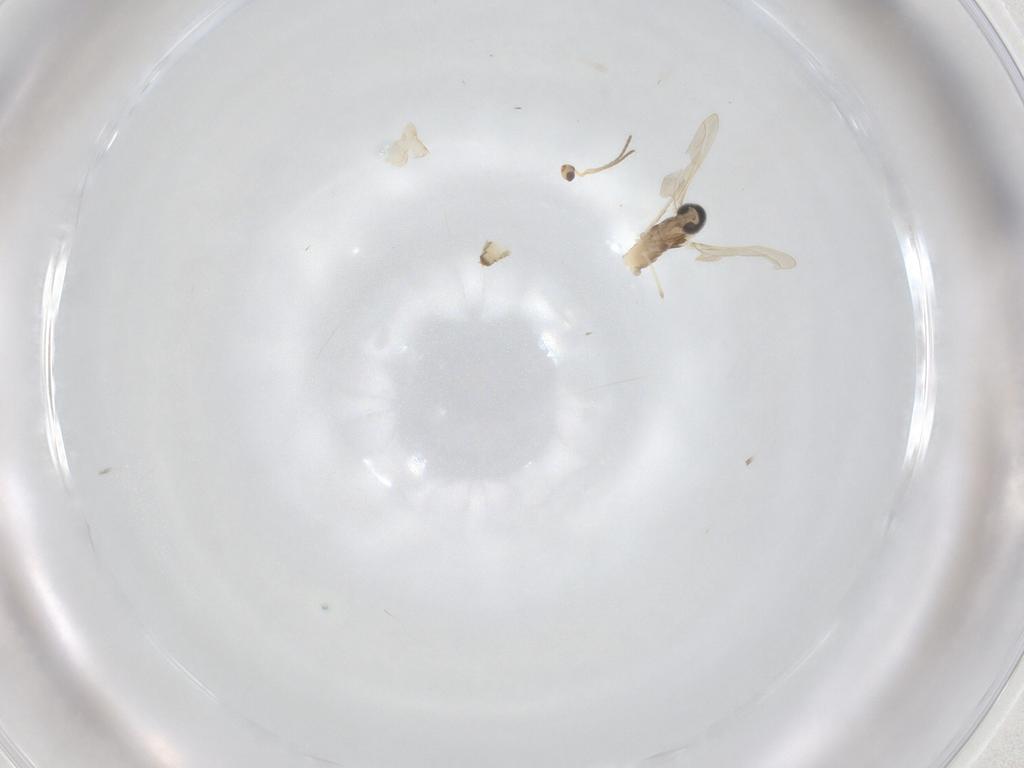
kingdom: Animalia
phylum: Arthropoda
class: Insecta
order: Diptera
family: Cecidomyiidae
